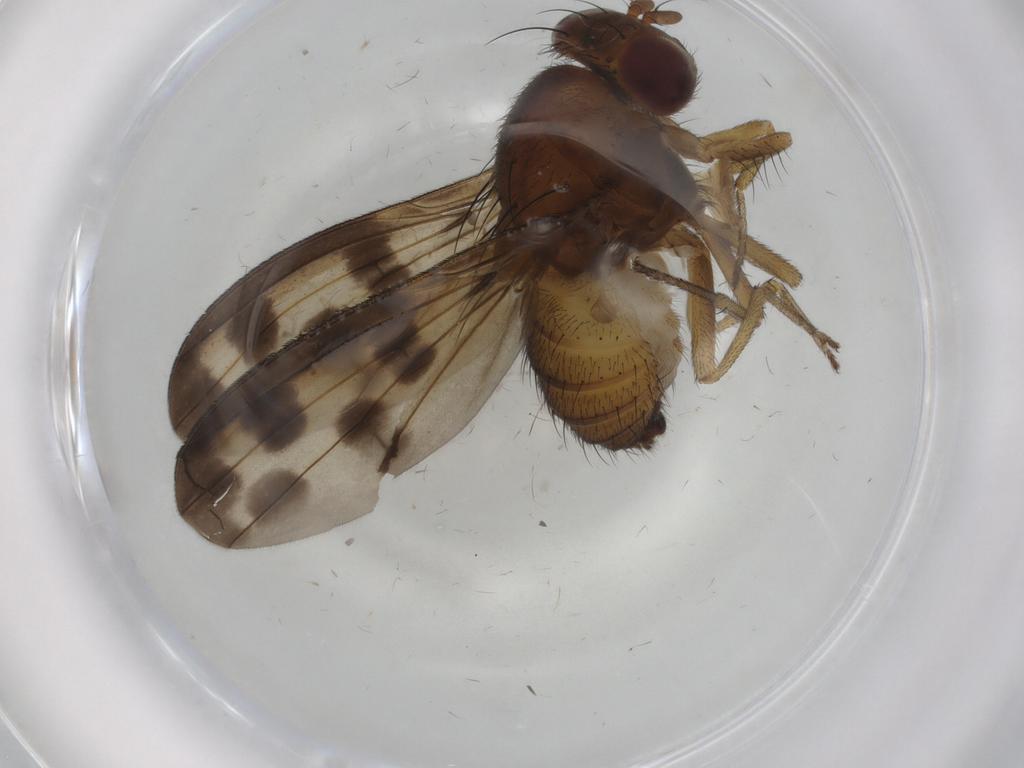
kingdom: Animalia
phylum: Arthropoda
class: Insecta
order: Diptera
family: Chironomidae
